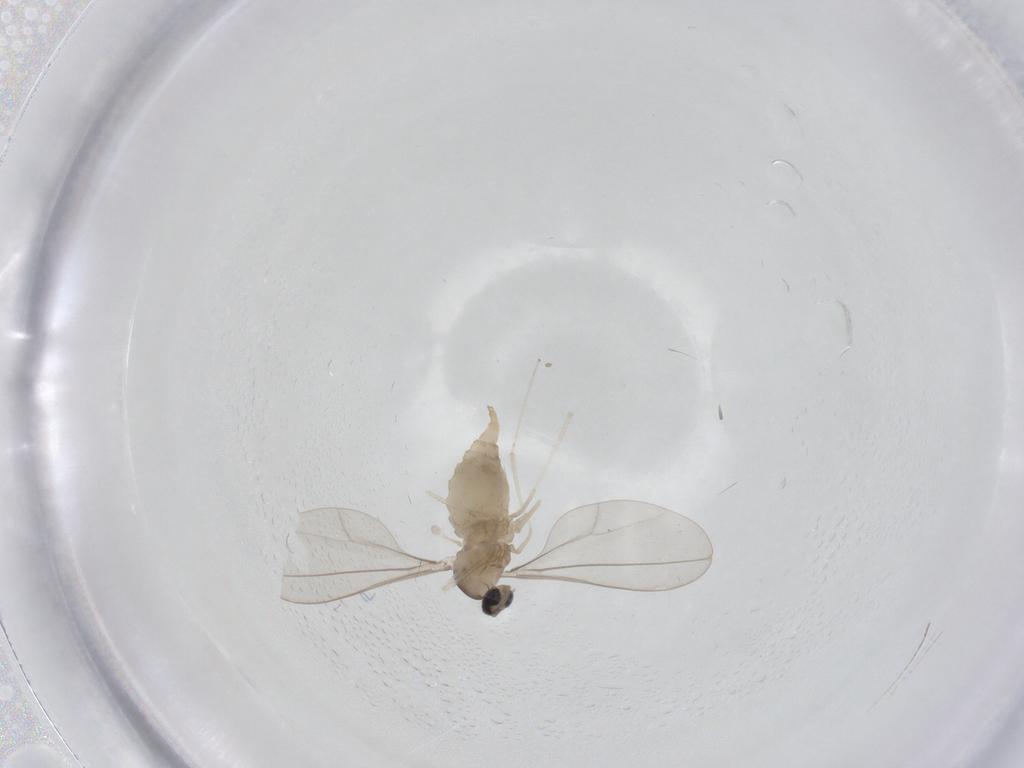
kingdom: Animalia
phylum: Arthropoda
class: Insecta
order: Diptera
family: Cecidomyiidae
